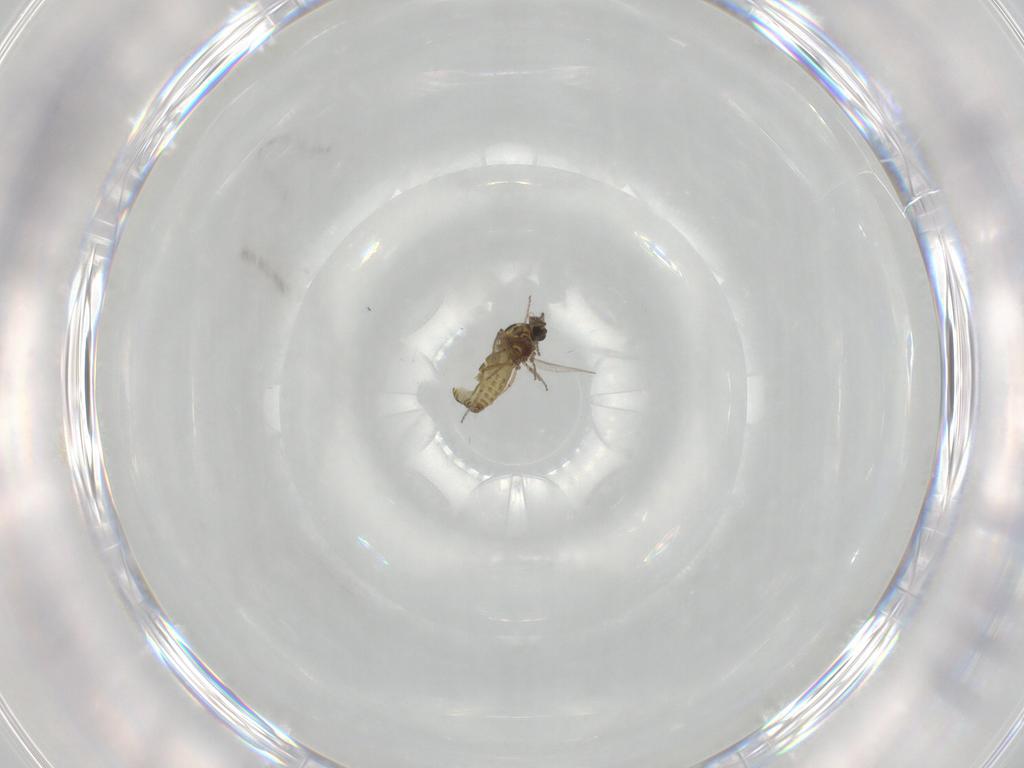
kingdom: Animalia
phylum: Arthropoda
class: Insecta
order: Diptera
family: Ceratopogonidae
